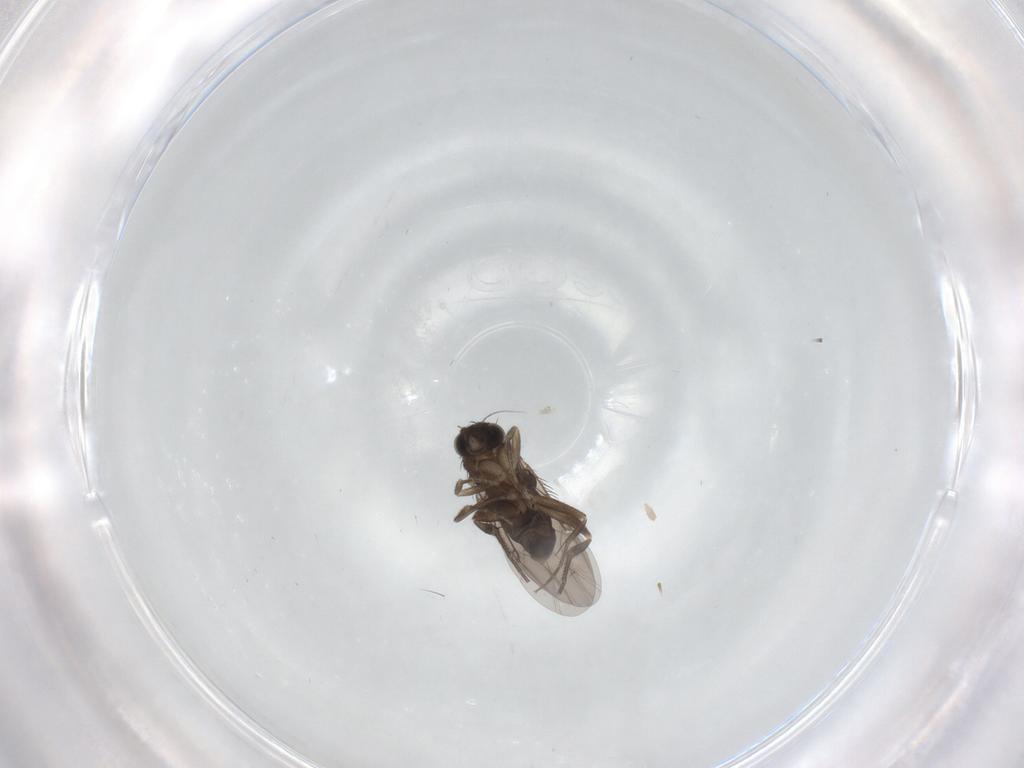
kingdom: Animalia
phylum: Arthropoda
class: Insecta
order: Diptera
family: Phoridae
